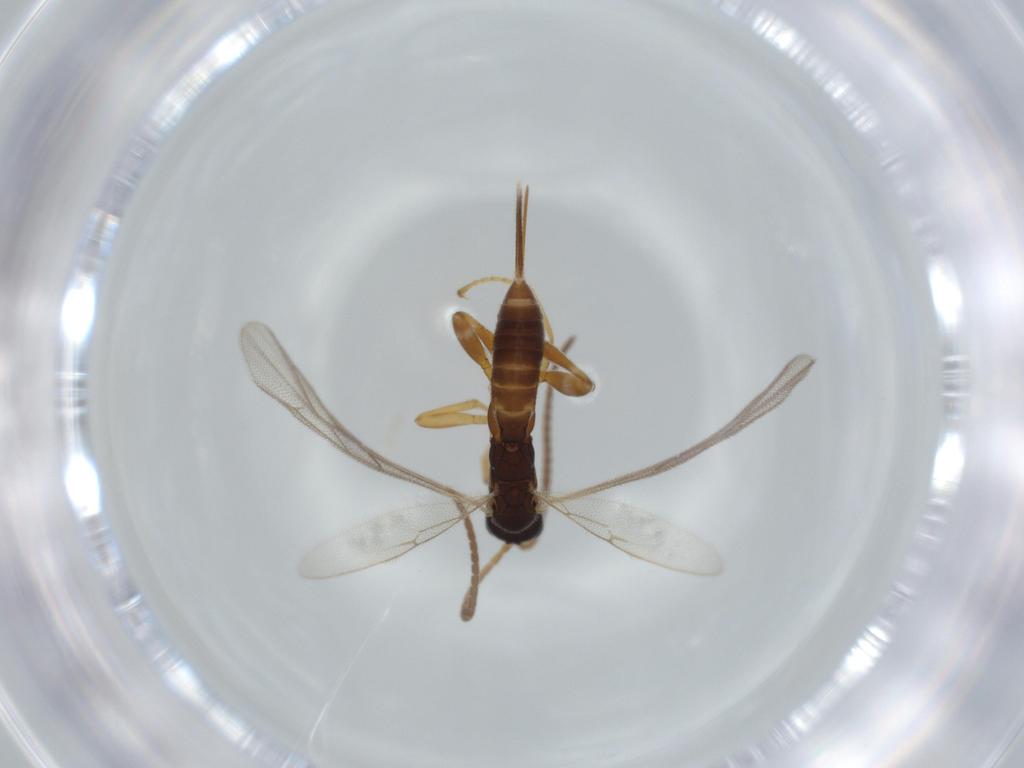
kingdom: Animalia
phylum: Arthropoda
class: Insecta
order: Hymenoptera
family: Ichneumonidae
